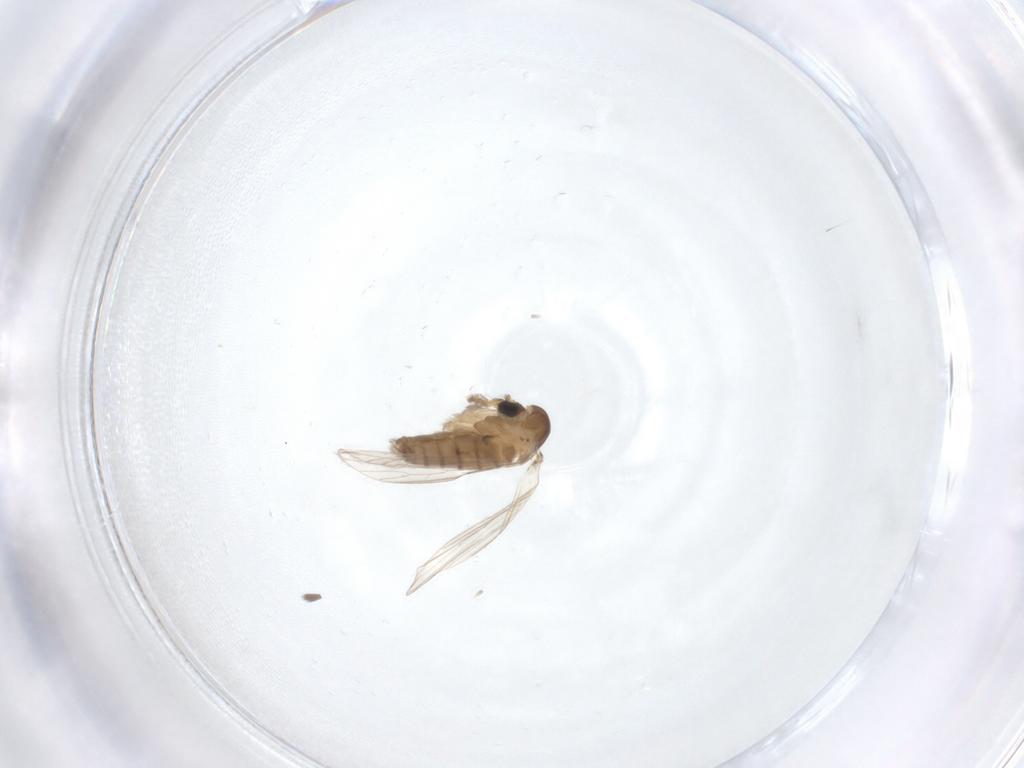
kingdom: Animalia
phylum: Arthropoda
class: Insecta
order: Diptera
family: Psychodidae
